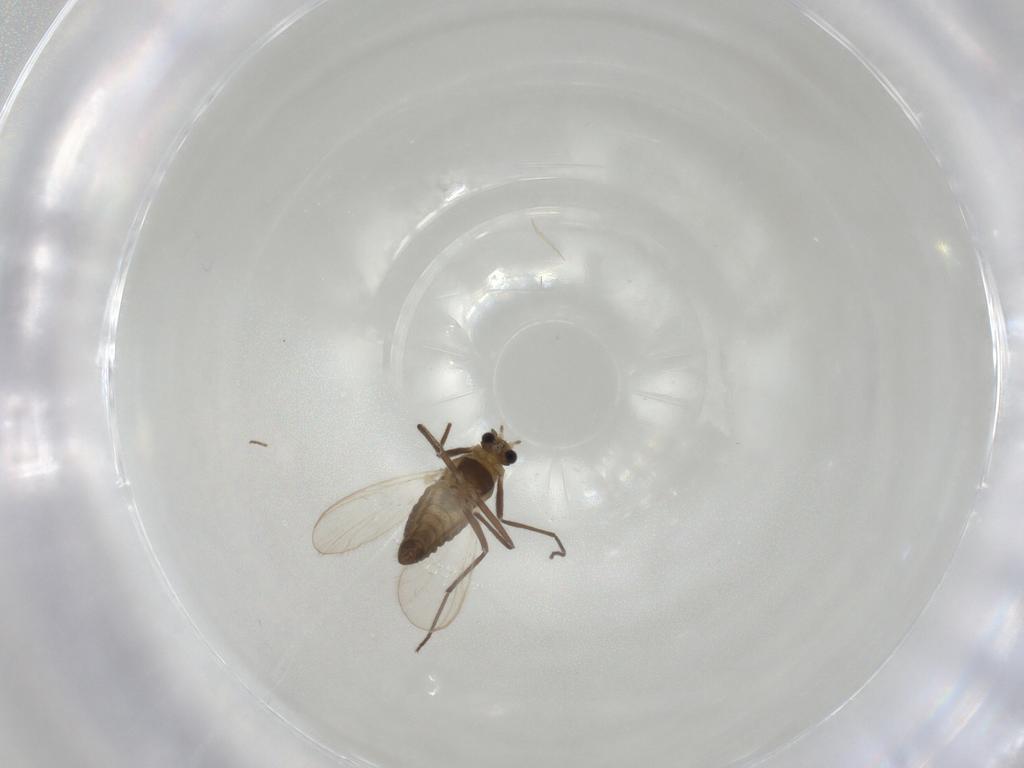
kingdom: Animalia
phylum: Arthropoda
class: Insecta
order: Diptera
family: Chironomidae
